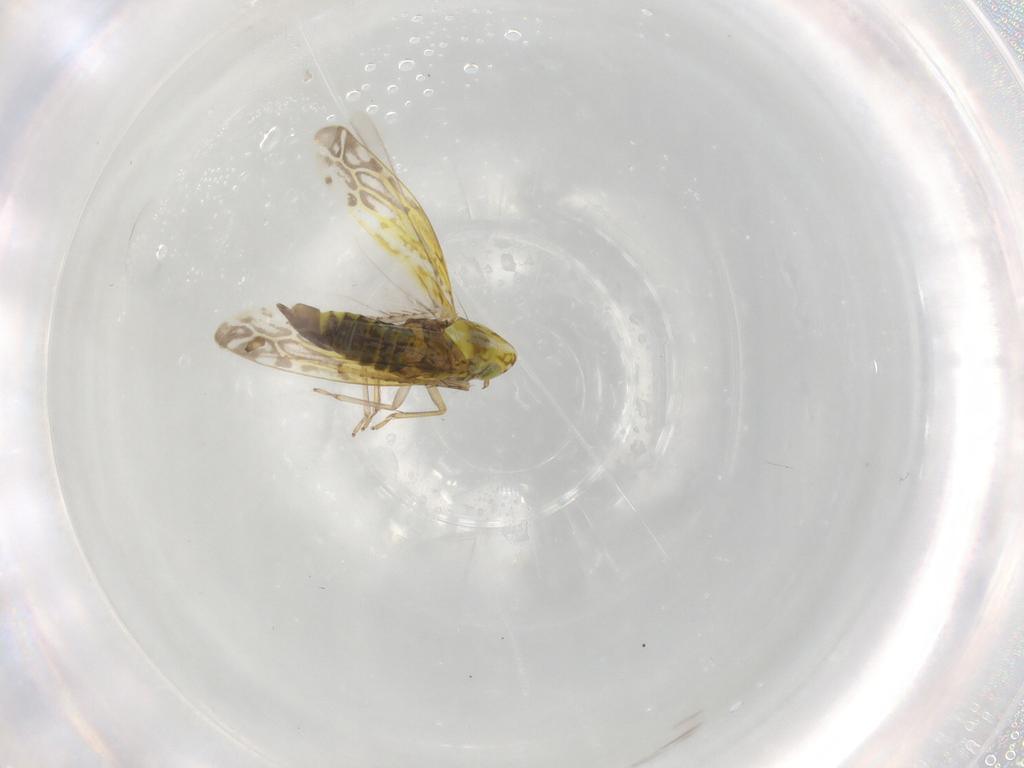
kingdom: Animalia
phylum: Arthropoda
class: Insecta
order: Hemiptera
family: Cicadellidae
